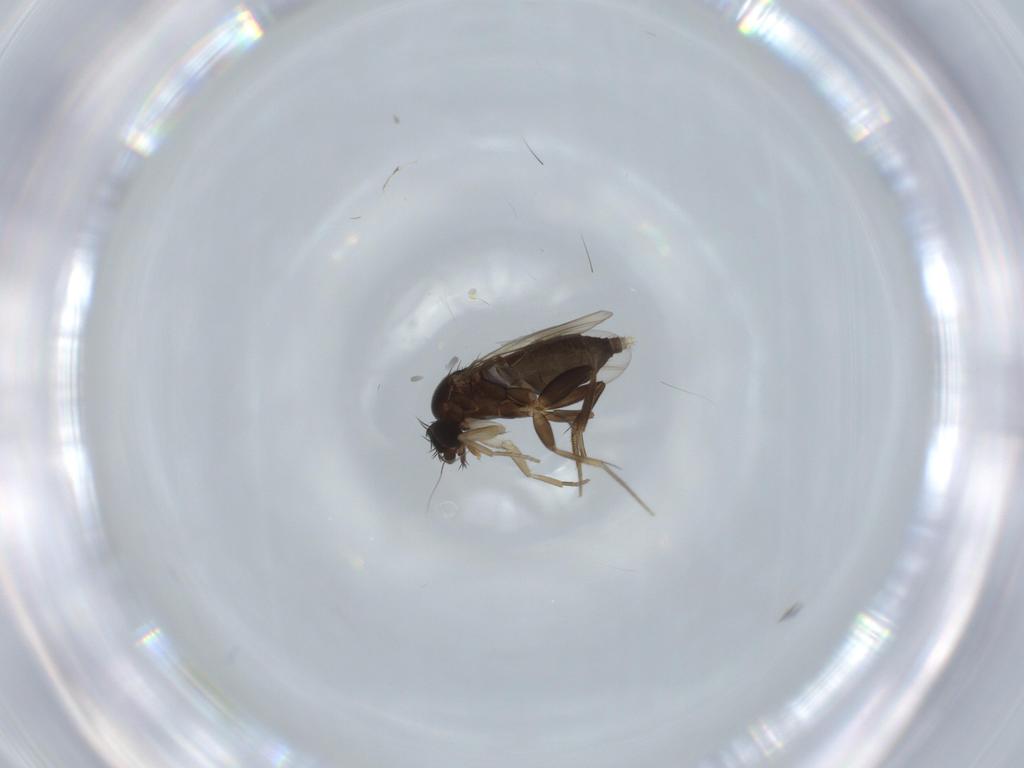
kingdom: Animalia
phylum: Arthropoda
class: Insecta
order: Diptera
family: Phoridae
